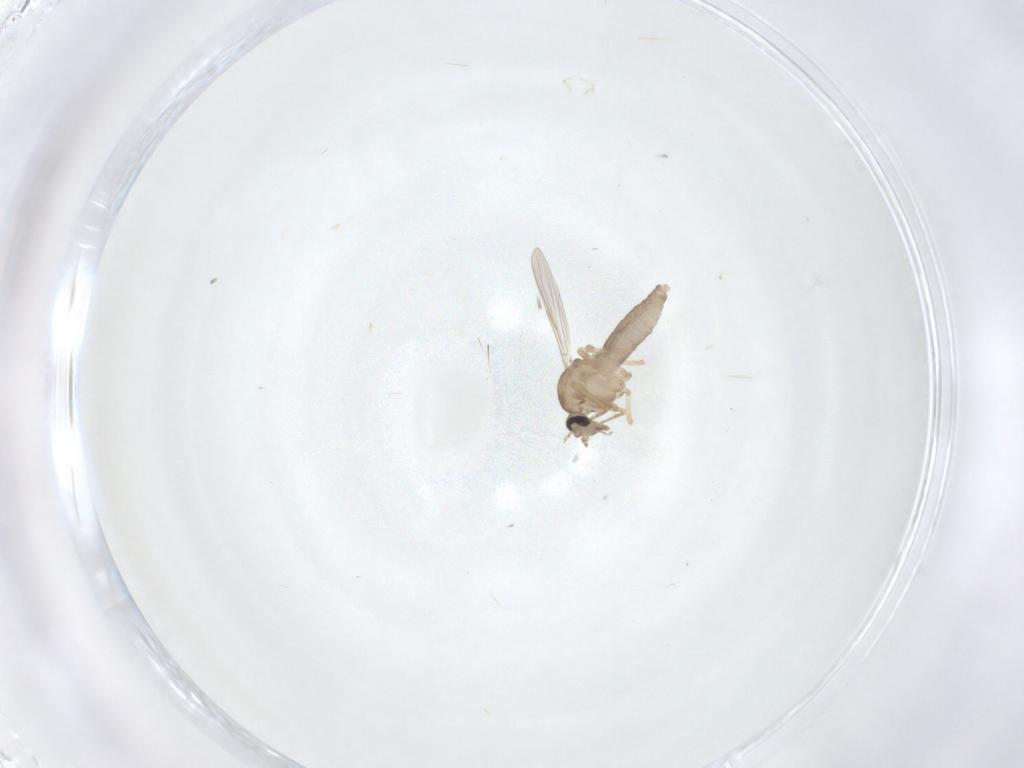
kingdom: Animalia
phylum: Arthropoda
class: Insecta
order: Diptera
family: Ceratopogonidae
